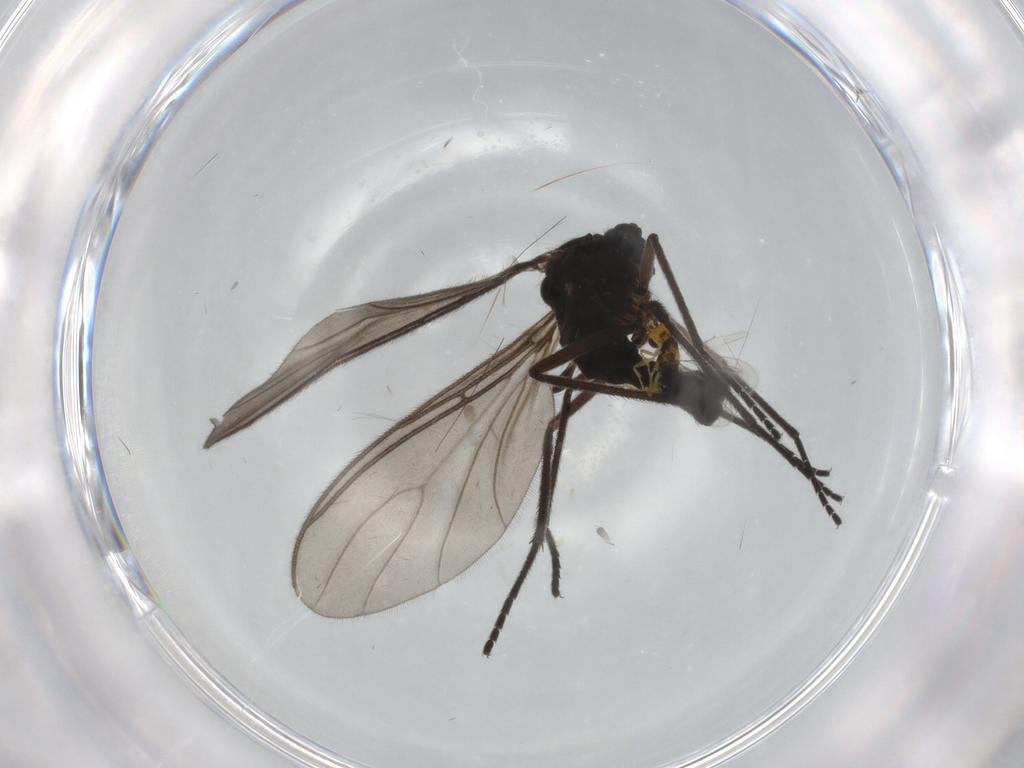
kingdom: Animalia
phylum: Arthropoda
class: Insecta
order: Diptera
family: Sciaridae
